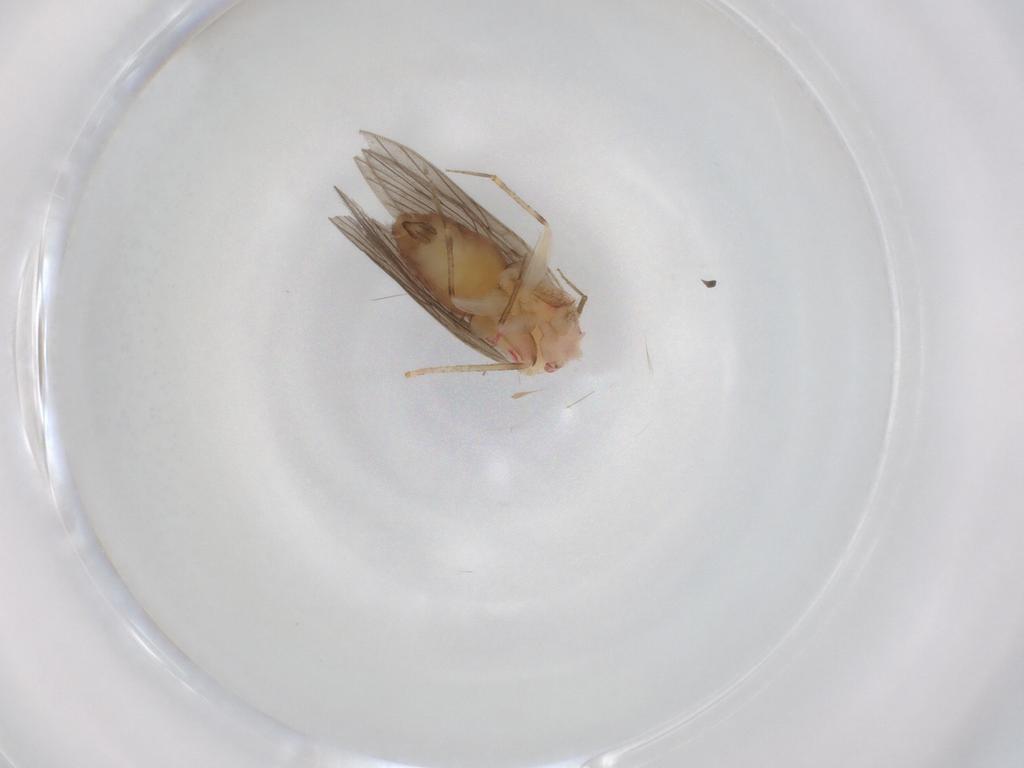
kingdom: Animalia
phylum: Arthropoda
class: Insecta
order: Psocodea
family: Lepidopsocidae
